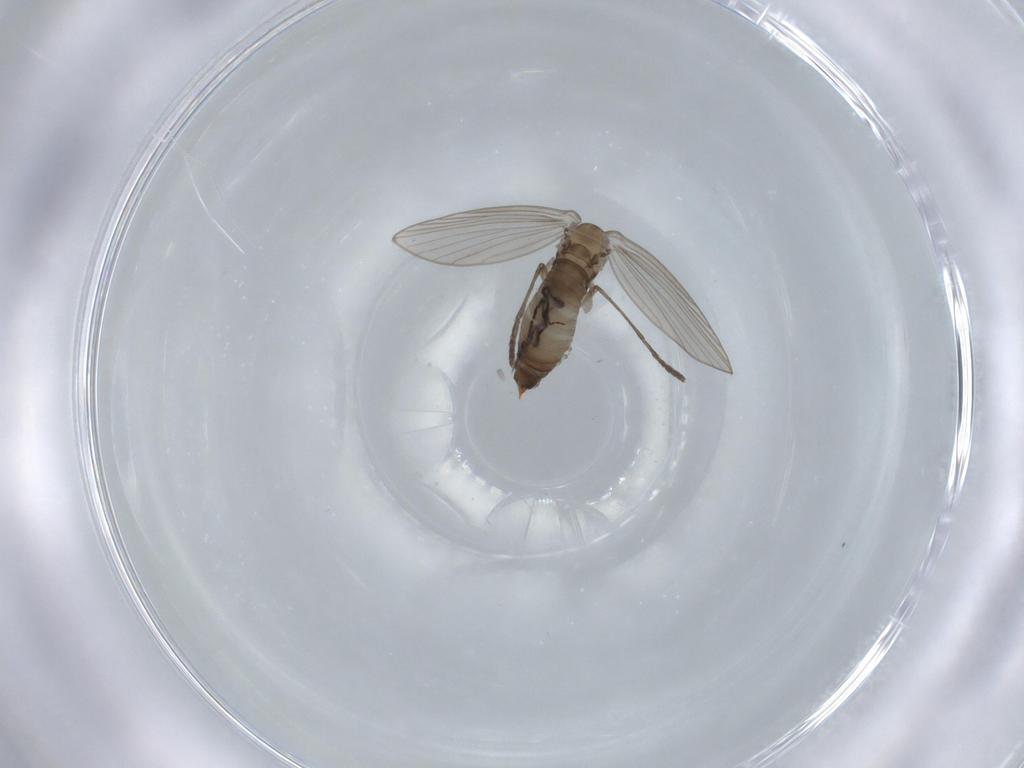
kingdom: Animalia
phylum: Arthropoda
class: Insecta
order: Diptera
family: Psychodidae
